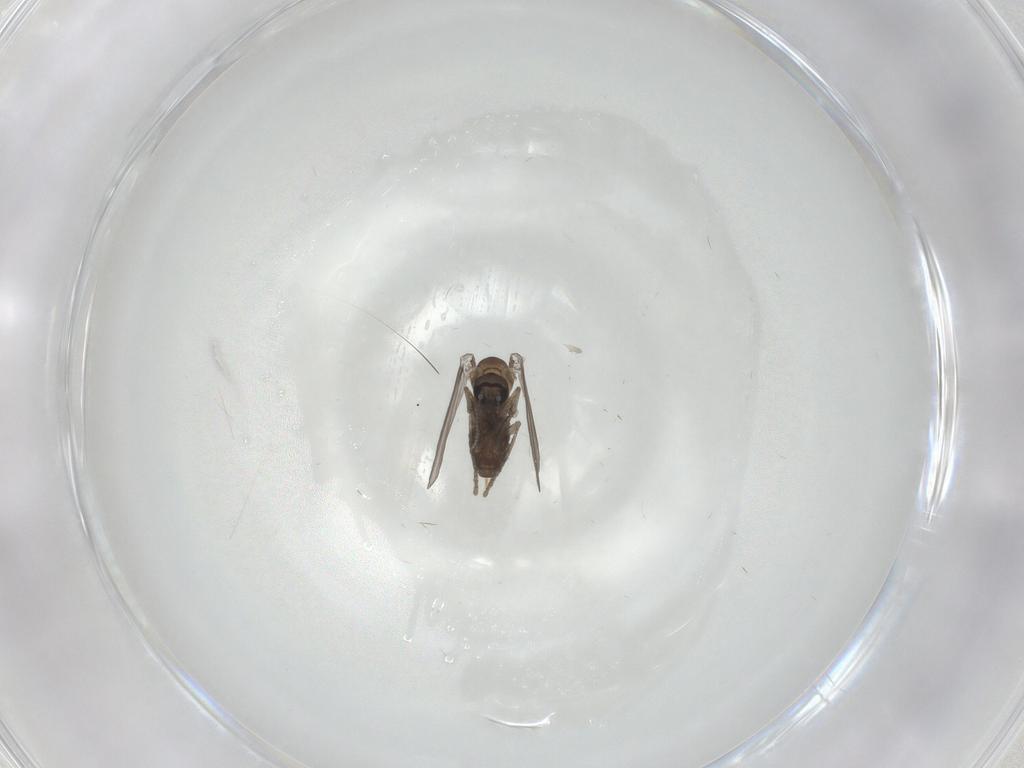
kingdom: Animalia
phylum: Arthropoda
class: Insecta
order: Diptera
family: Psychodidae
